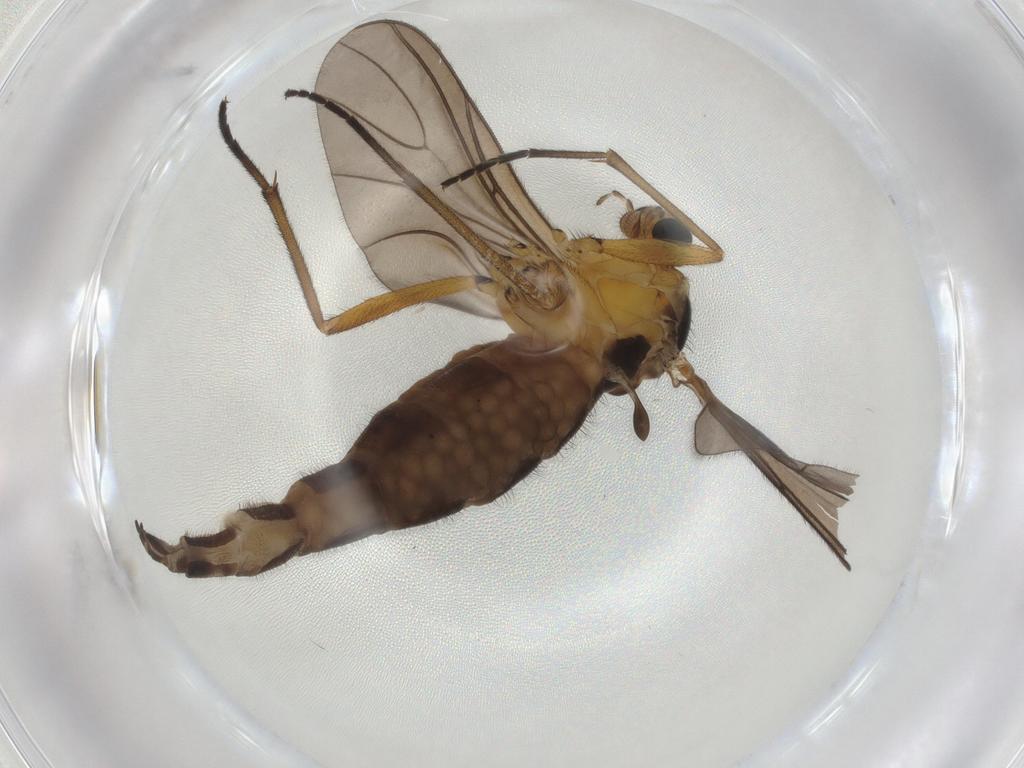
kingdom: Animalia
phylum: Arthropoda
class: Insecta
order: Diptera
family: Sciaridae
